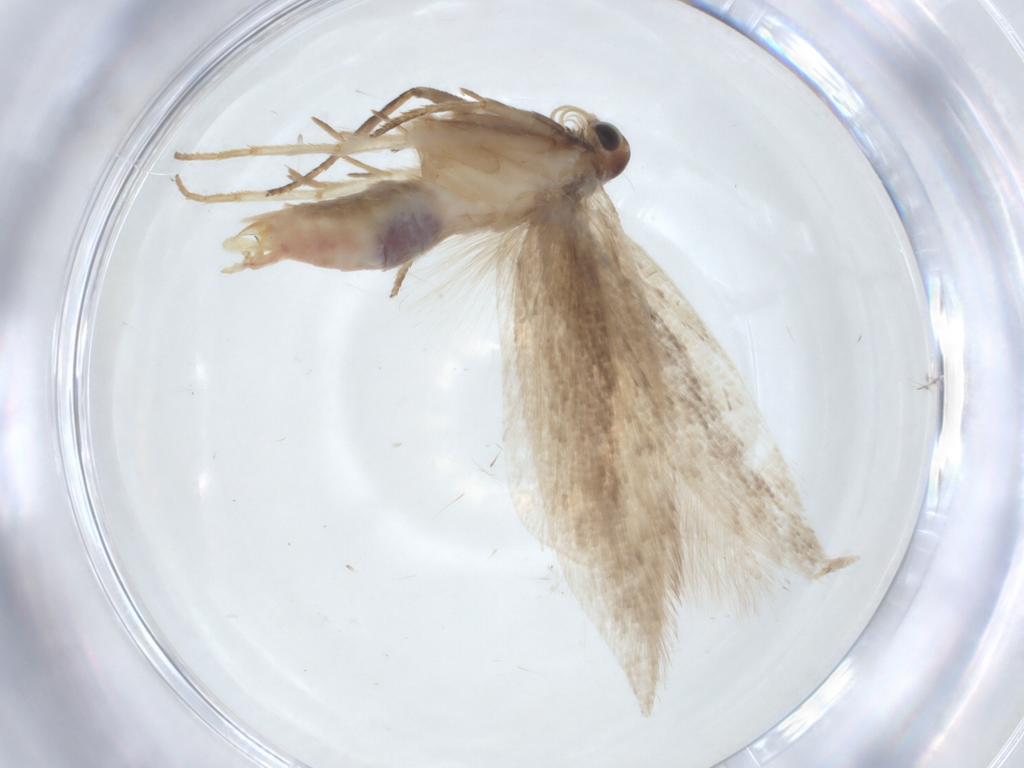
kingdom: Animalia
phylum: Arthropoda
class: Insecta
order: Lepidoptera
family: Gelechiidae
